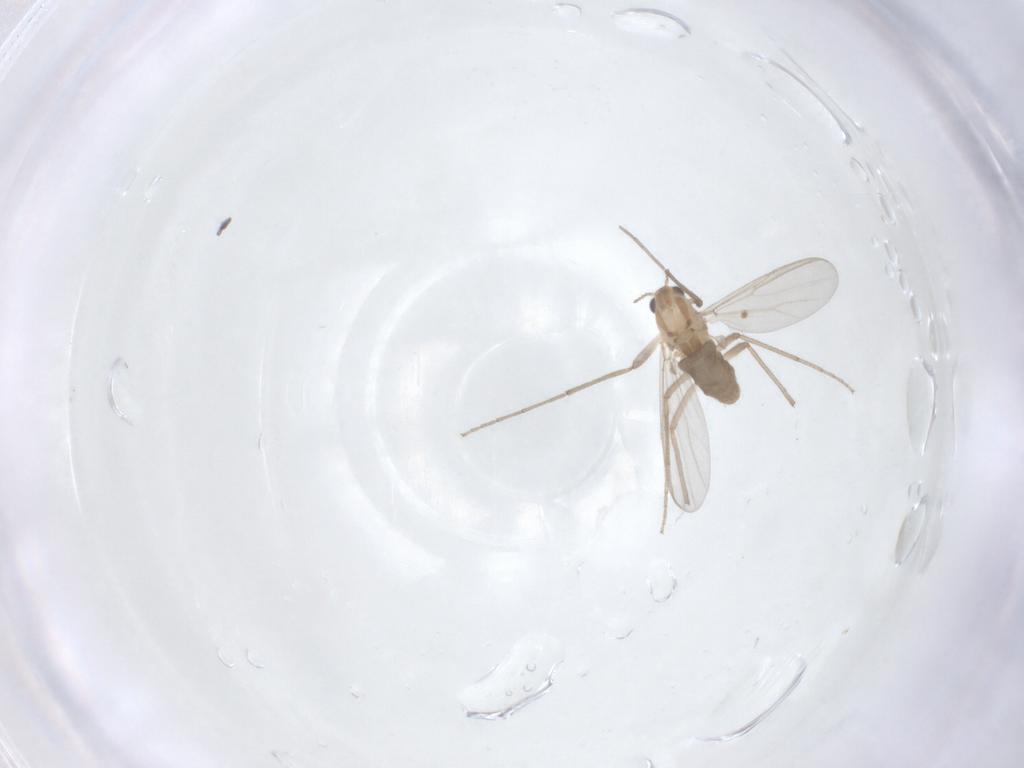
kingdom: Animalia
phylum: Arthropoda
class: Insecta
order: Diptera
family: Chironomidae
